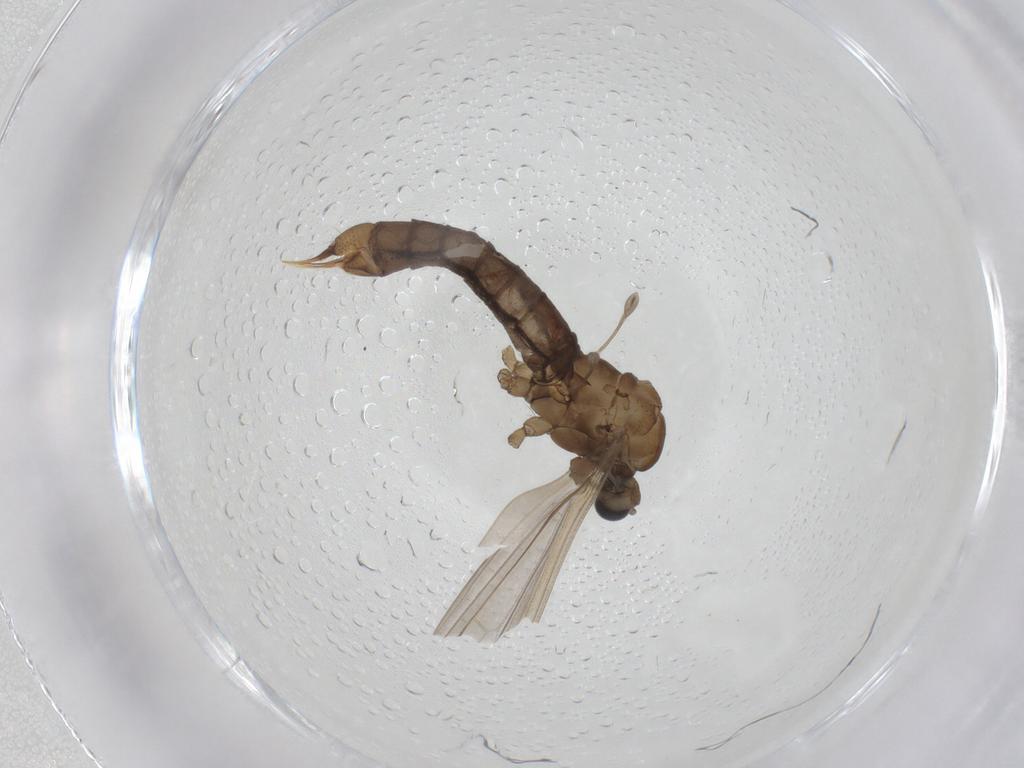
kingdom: Animalia
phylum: Arthropoda
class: Insecta
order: Diptera
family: Limoniidae
